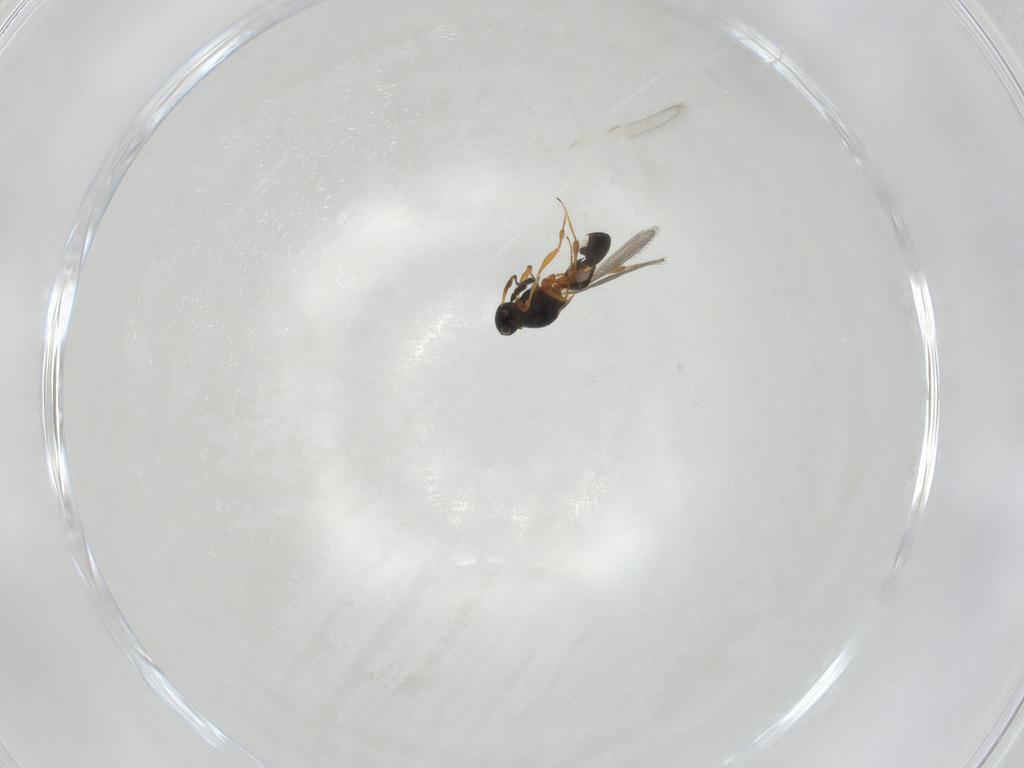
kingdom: Animalia
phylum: Arthropoda
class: Insecta
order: Hymenoptera
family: Platygastridae
